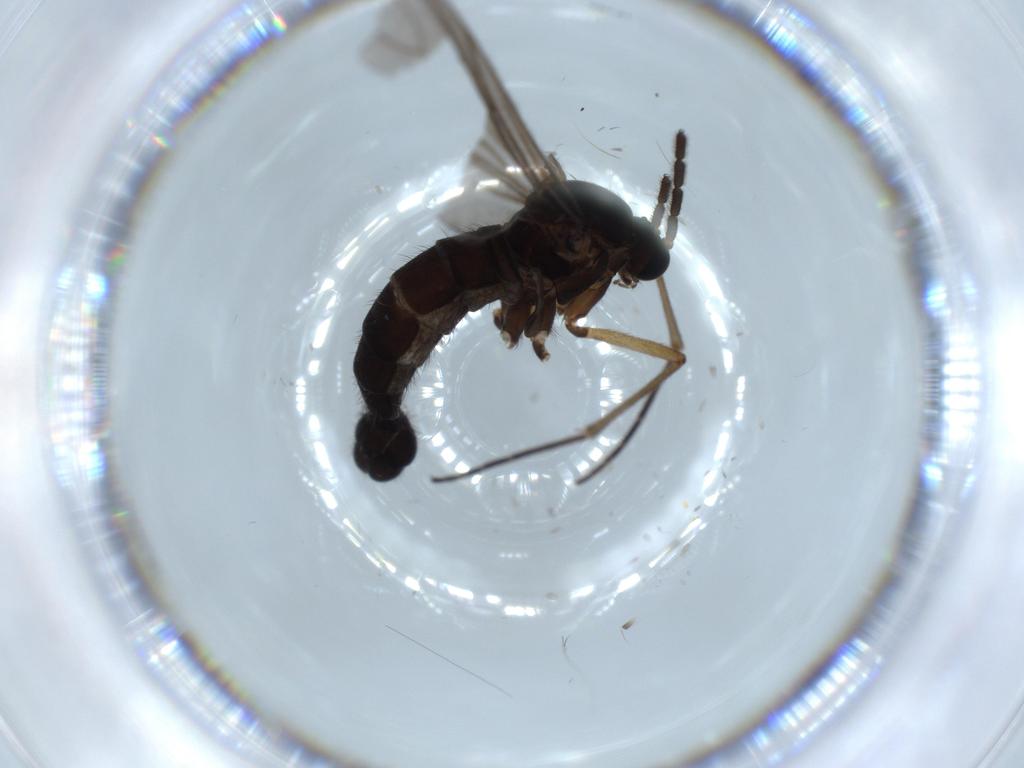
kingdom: Animalia
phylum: Arthropoda
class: Insecta
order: Diptera
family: Sciaridae
